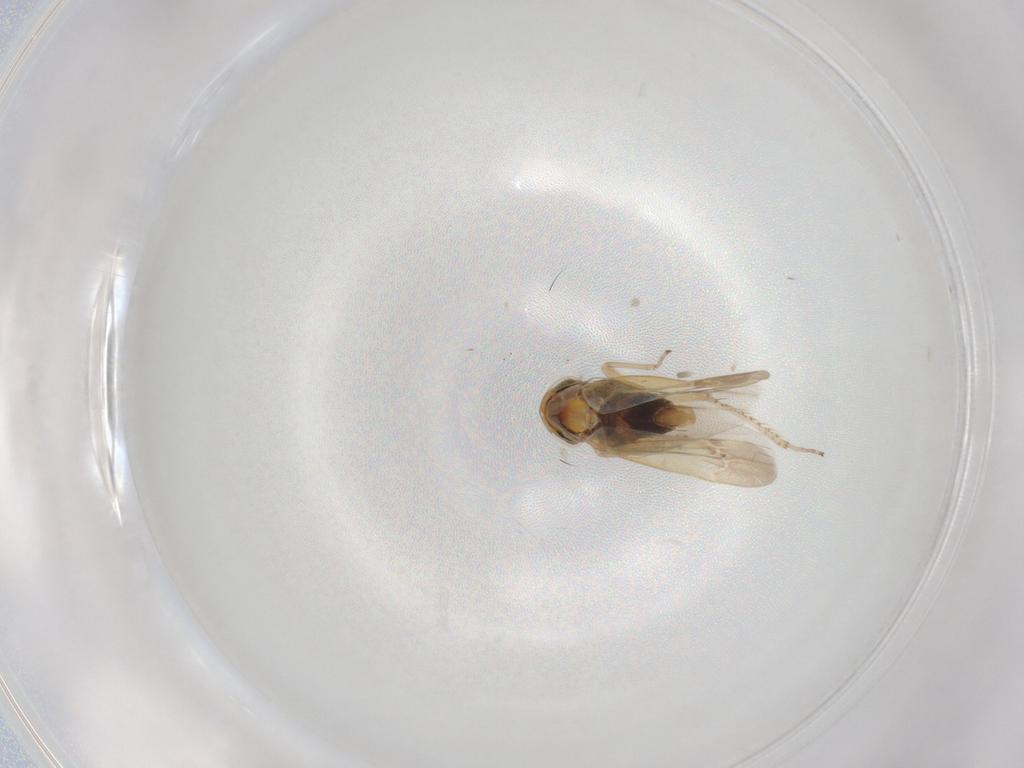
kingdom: Animalia
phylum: Arthropoda
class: Insecta
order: Hemiptera
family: Cicadellidae
